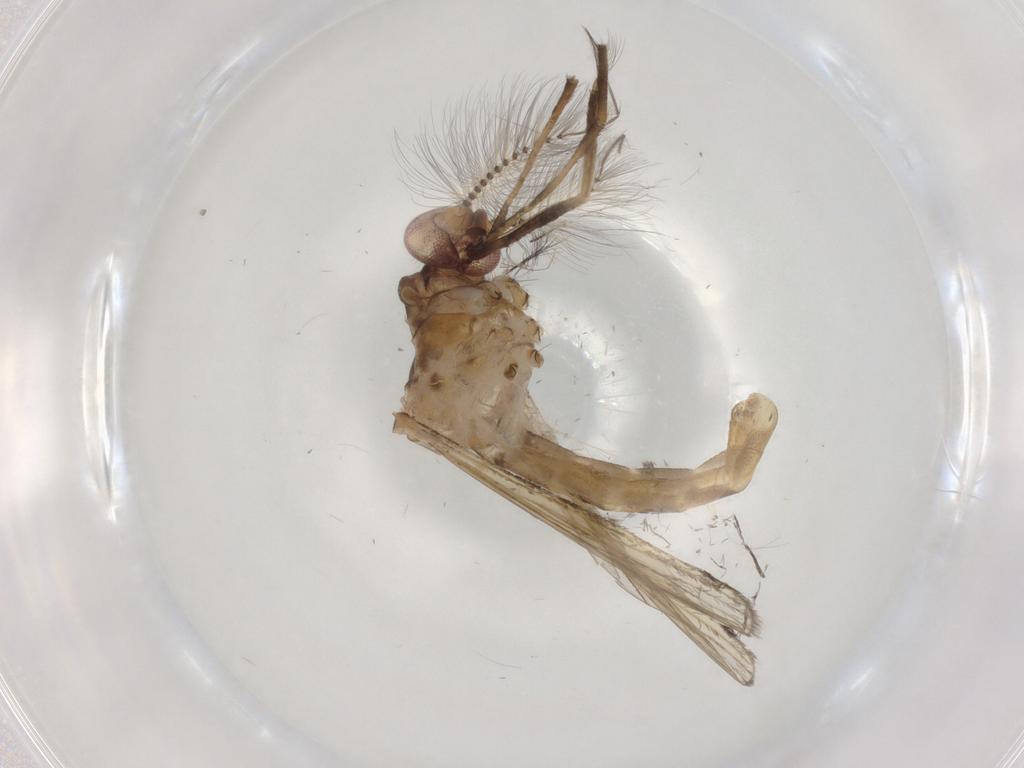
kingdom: Animalia
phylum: Arthropoda
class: Insecta
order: Diptera
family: Culicidae
